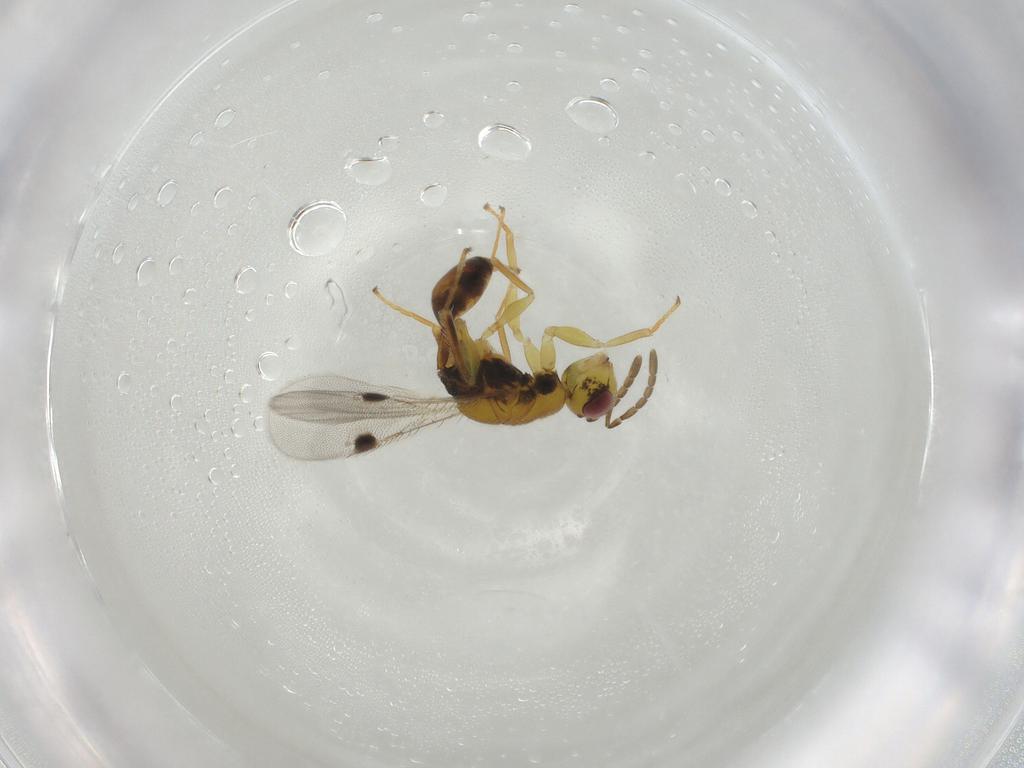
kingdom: Animalia
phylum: Arthropoda
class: Insecta
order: Hymenoptera
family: Eurytomidae
